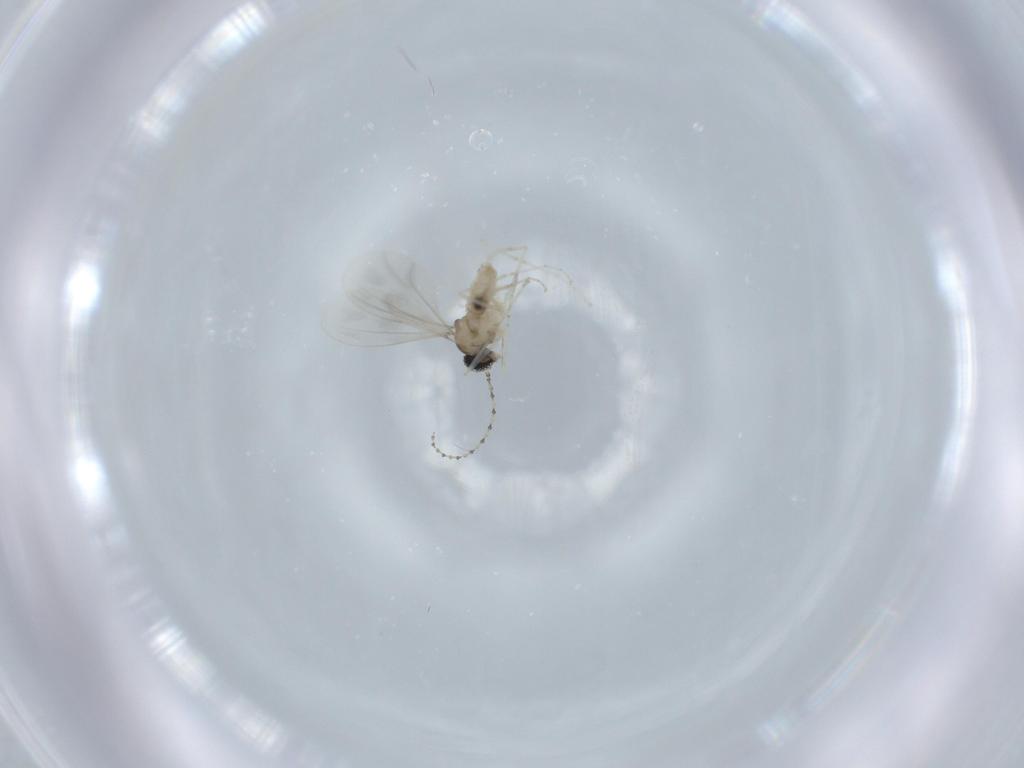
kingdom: Animalia
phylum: Arthropoda
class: Insecta
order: Diptera
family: Cecidomyiidae
